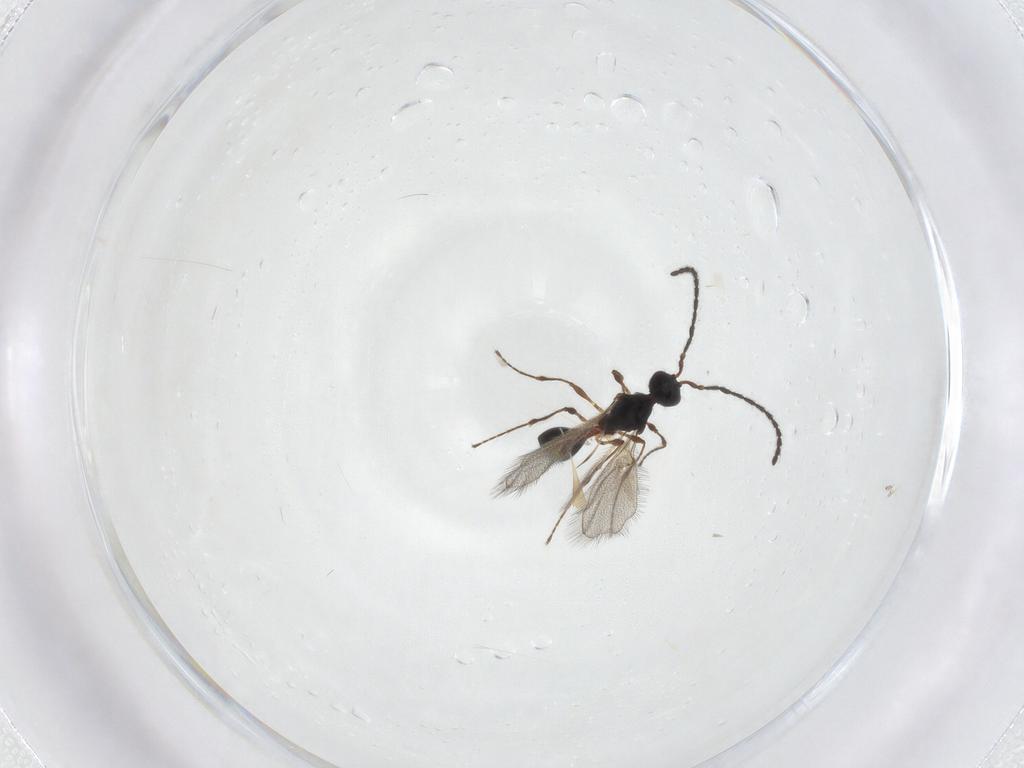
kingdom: Animalia
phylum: Arthropoda
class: Insecta
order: Hymenoptera
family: Diapriidae
